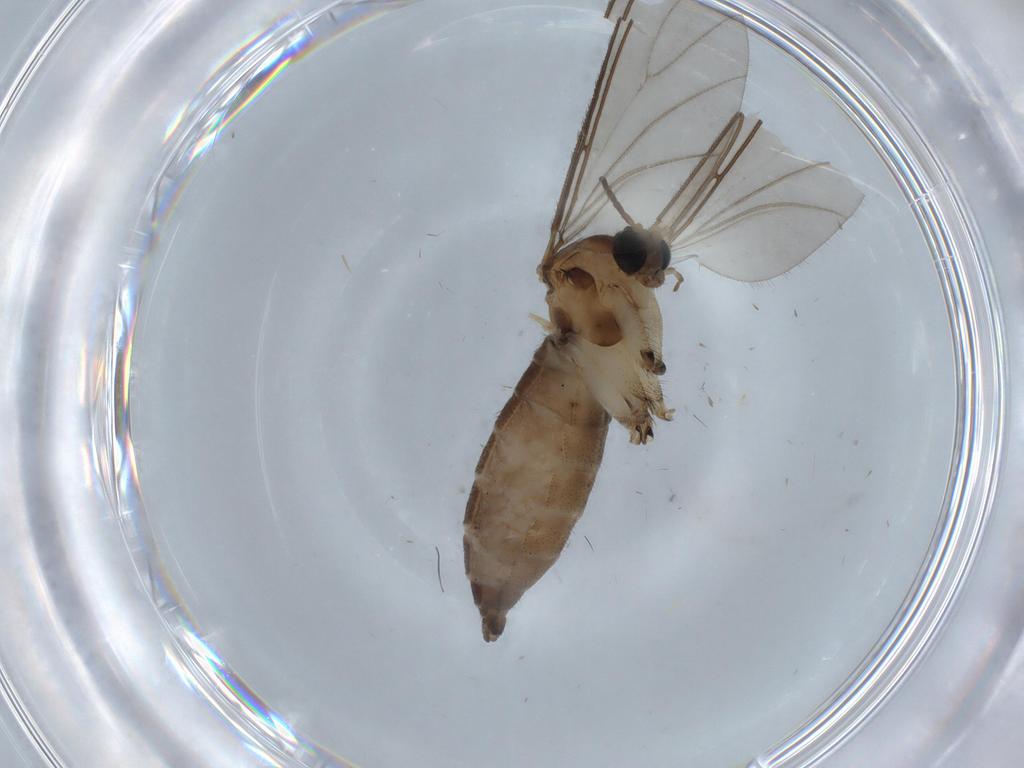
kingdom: Animalia
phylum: Arthropoda
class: Insecta
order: Diptera
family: Sciaridae
